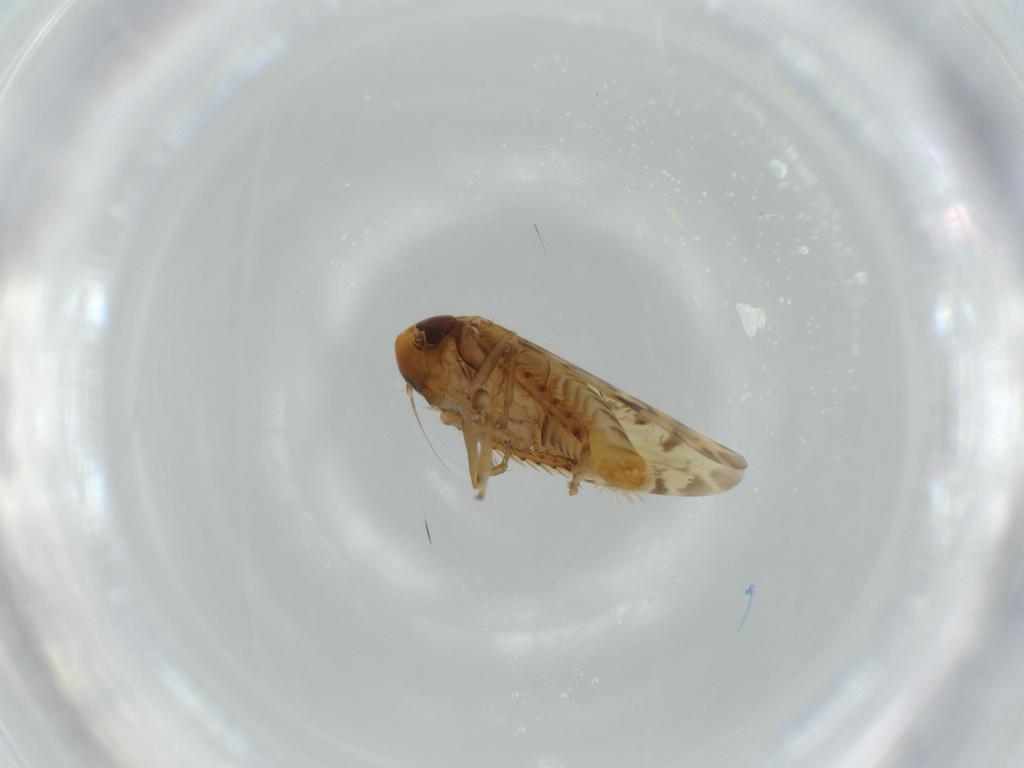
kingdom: Animalia
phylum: Arthropoda
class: Insecta
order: Hemiptera
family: Cicadellidae
